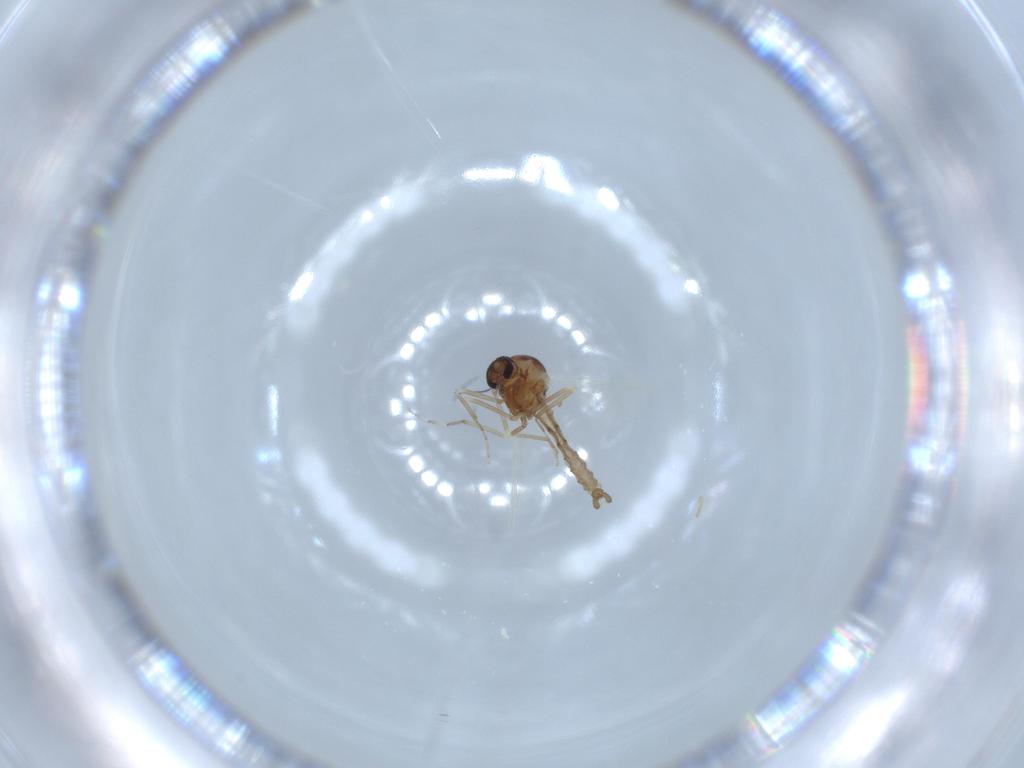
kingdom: Animalia
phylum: Arthropoda
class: Insecta
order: Diptera
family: Ceratopogonidae
